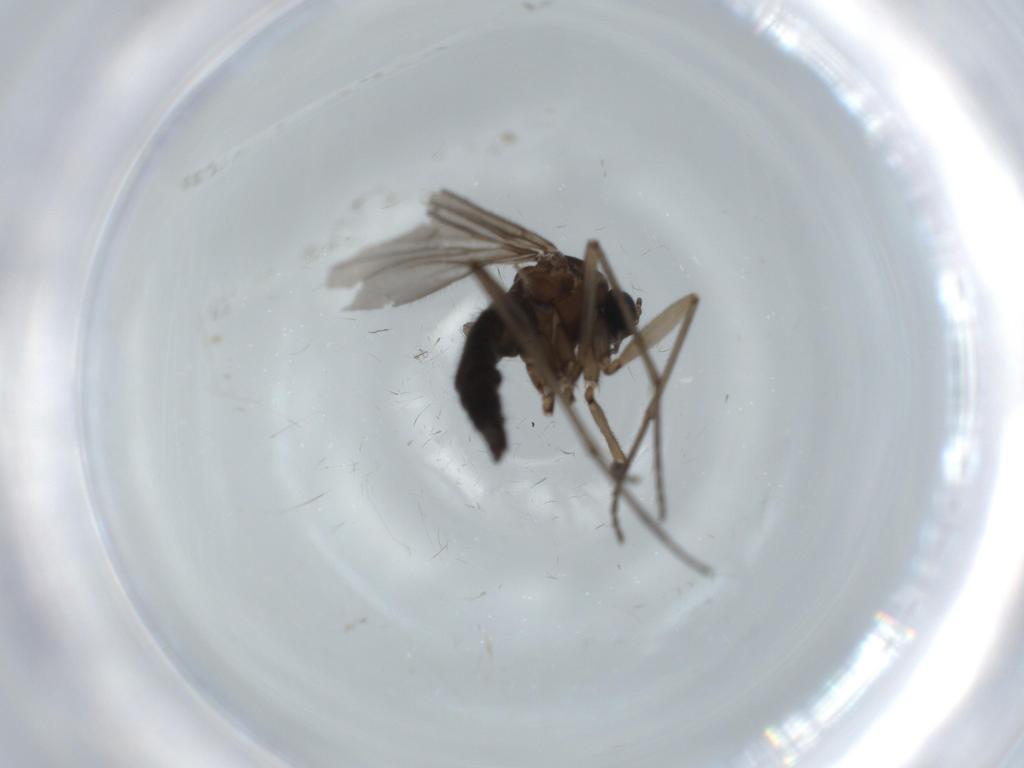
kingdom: Animalia
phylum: Arthropoda
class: Insecta
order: Diptera
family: Sciaridae
